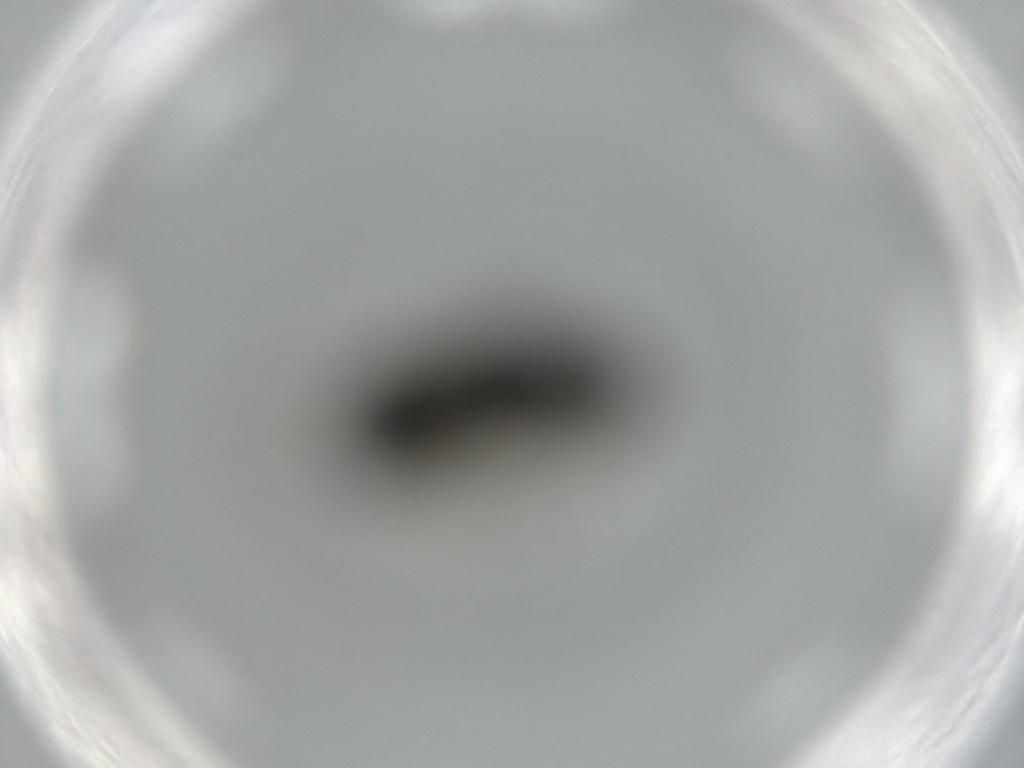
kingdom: Animalia
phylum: Arthropoda
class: Insecta
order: Diptera
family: Stratiomyidae
